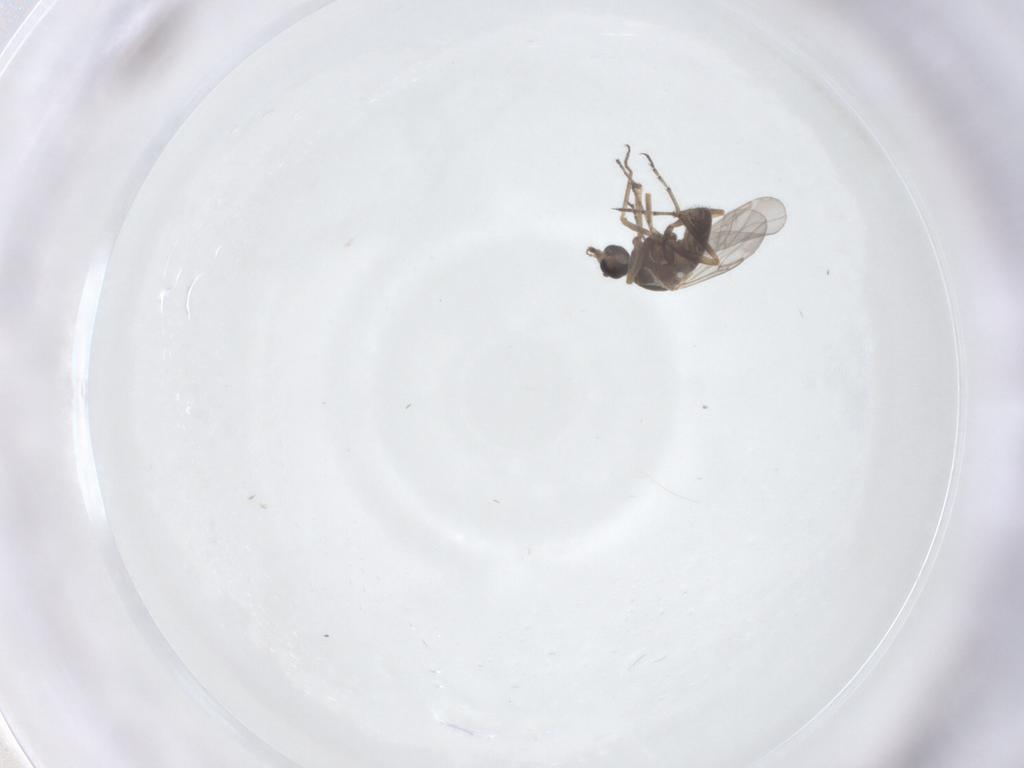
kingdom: Animalia
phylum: Arthropoda
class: Insecta
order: Diptera
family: Ceratopogonidae
